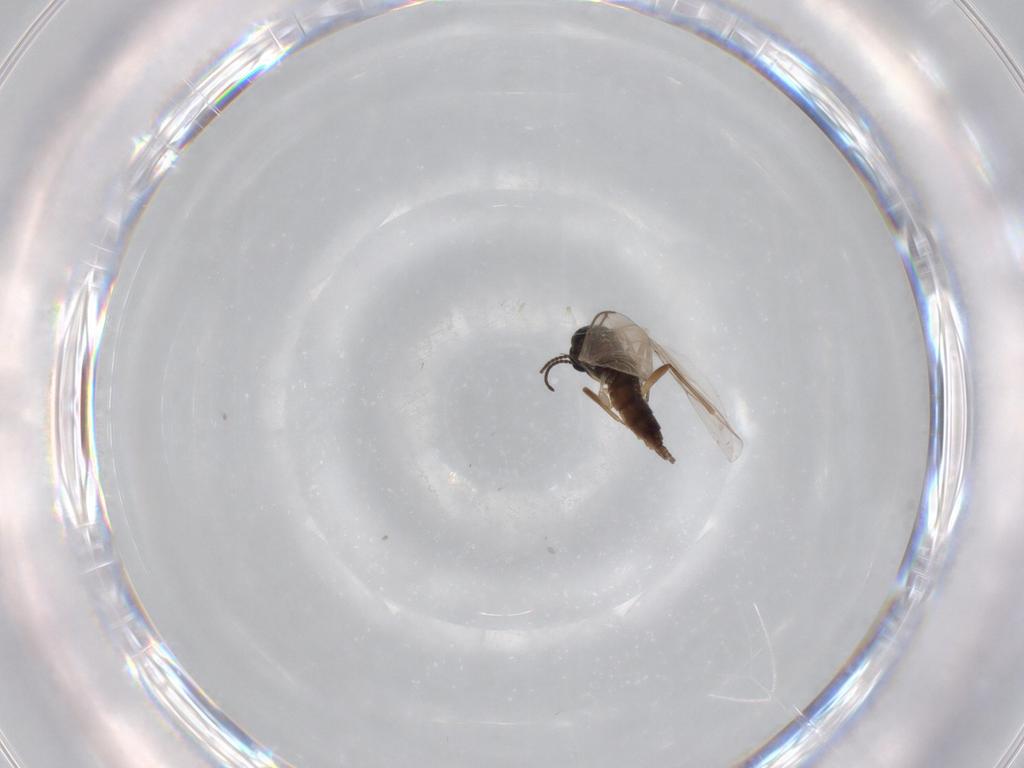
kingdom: Animalia
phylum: Arthropoda
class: Insecta
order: Diptera
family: Sciaridae
